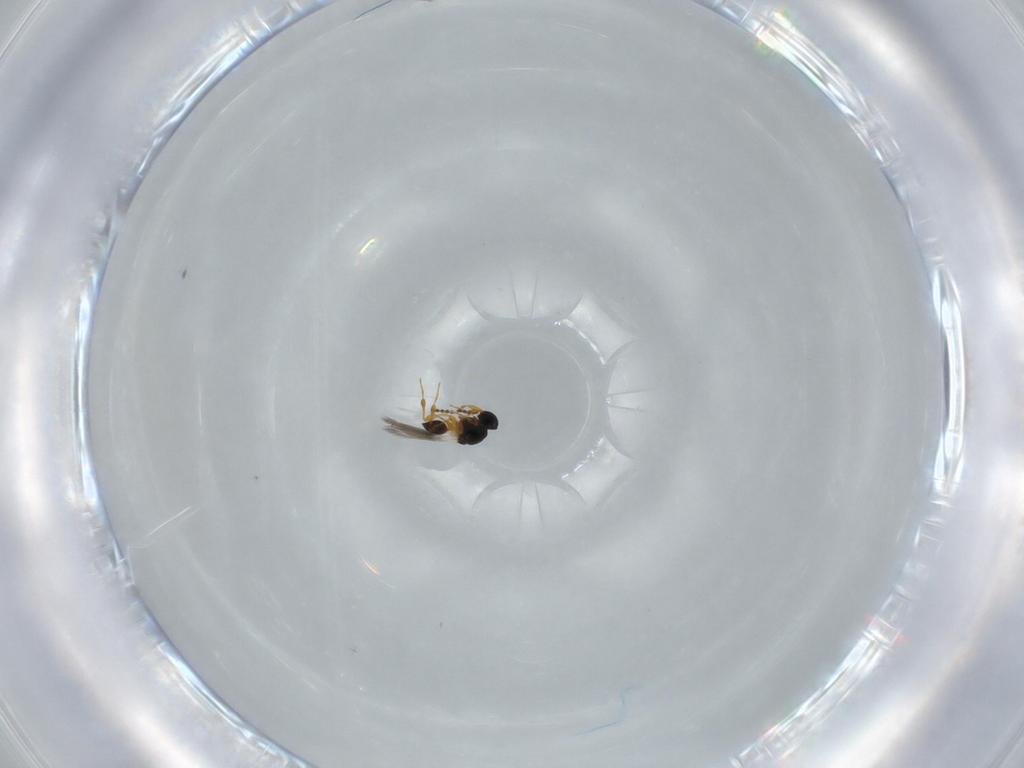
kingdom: Animalia
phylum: Arthropoda
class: Insecta
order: Hymenoptera
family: Platygastridae
